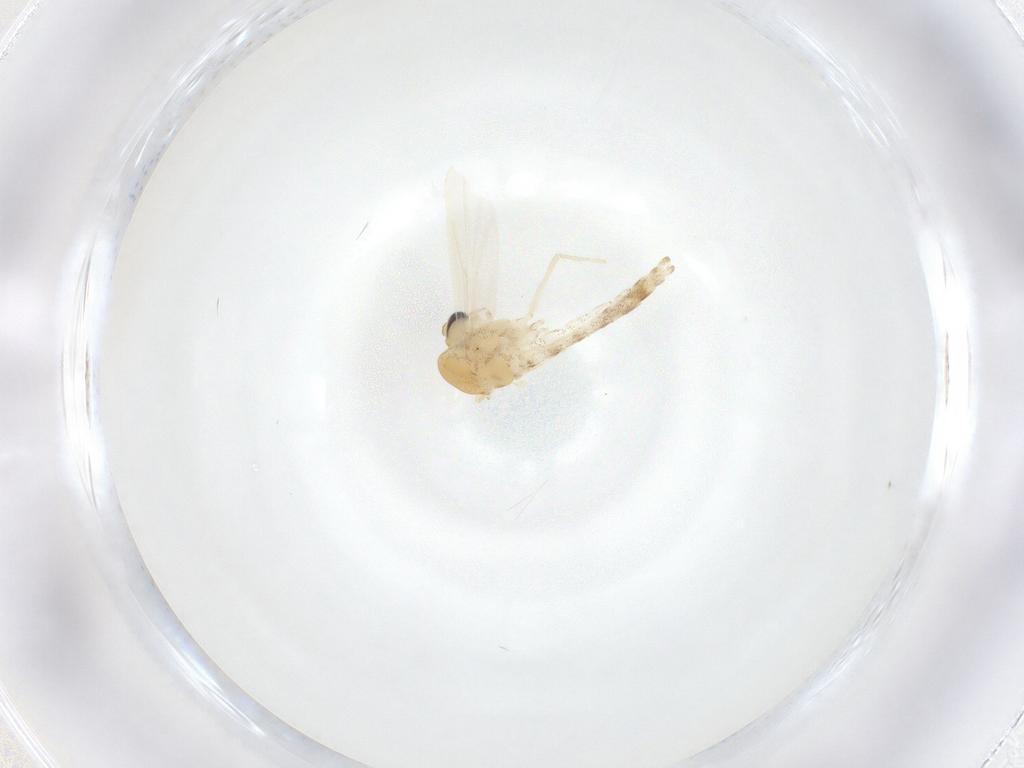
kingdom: Animalia
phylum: Arthropoda
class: Insecta
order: Diptera
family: Chironomidae
